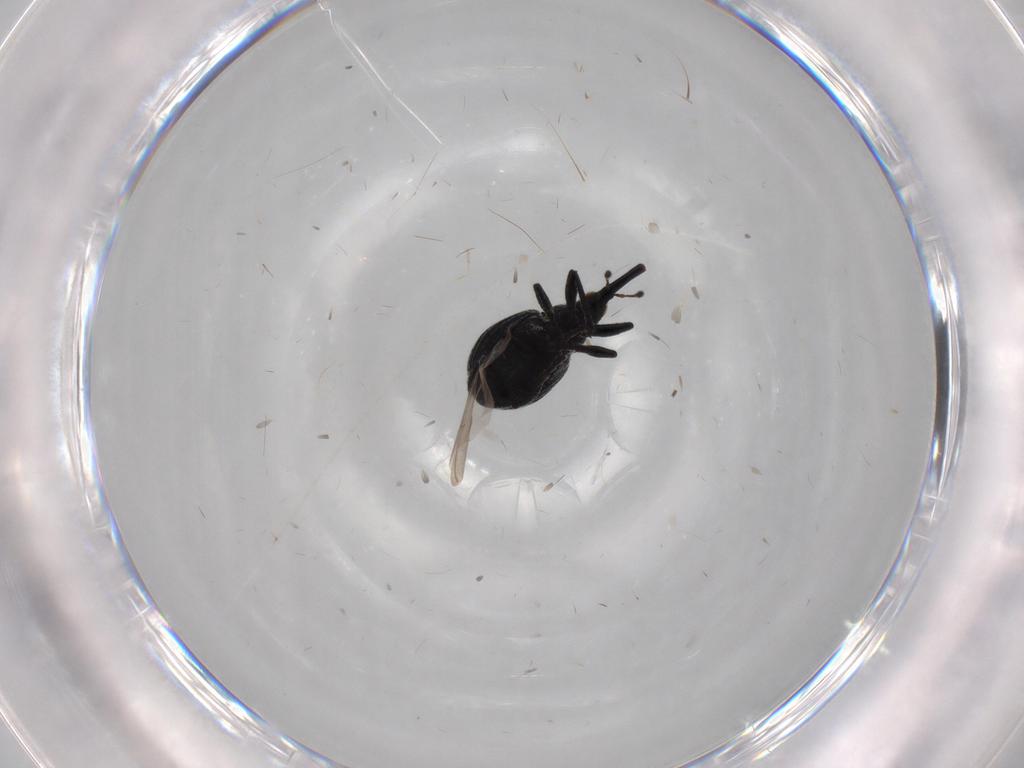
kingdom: Animalia
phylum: Arthropoda
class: Insecta
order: Coleoptera
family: Brentidae
